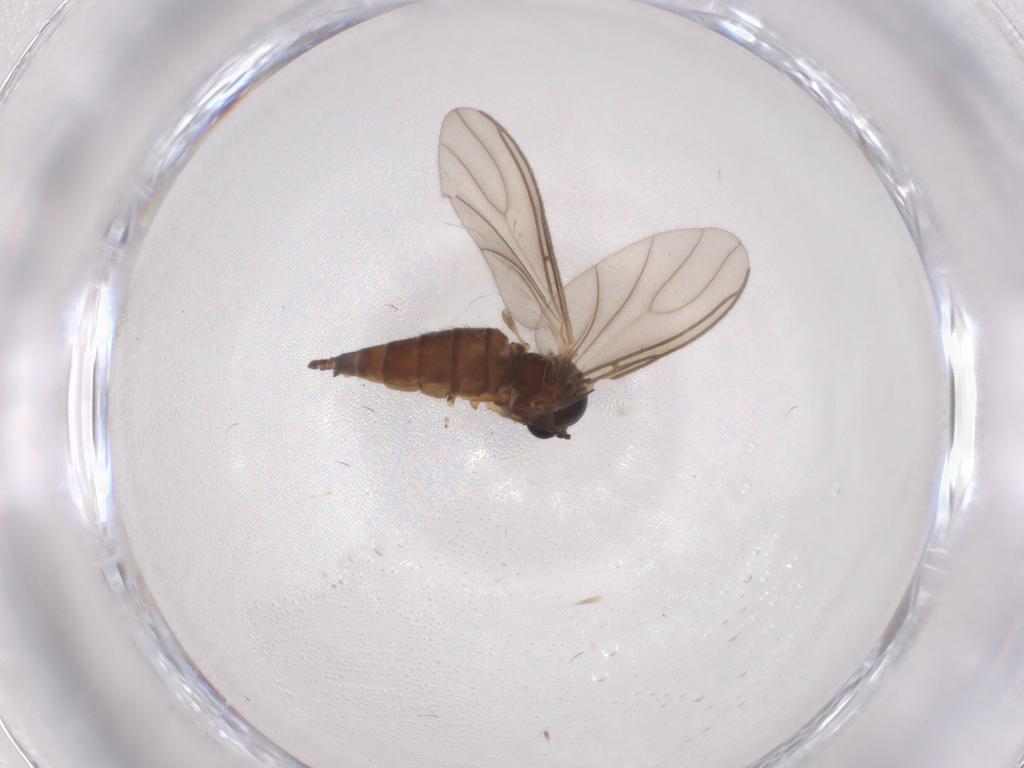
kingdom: Animalia
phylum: Arthropoda
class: Insecta
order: Diptera
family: Sciaridae
